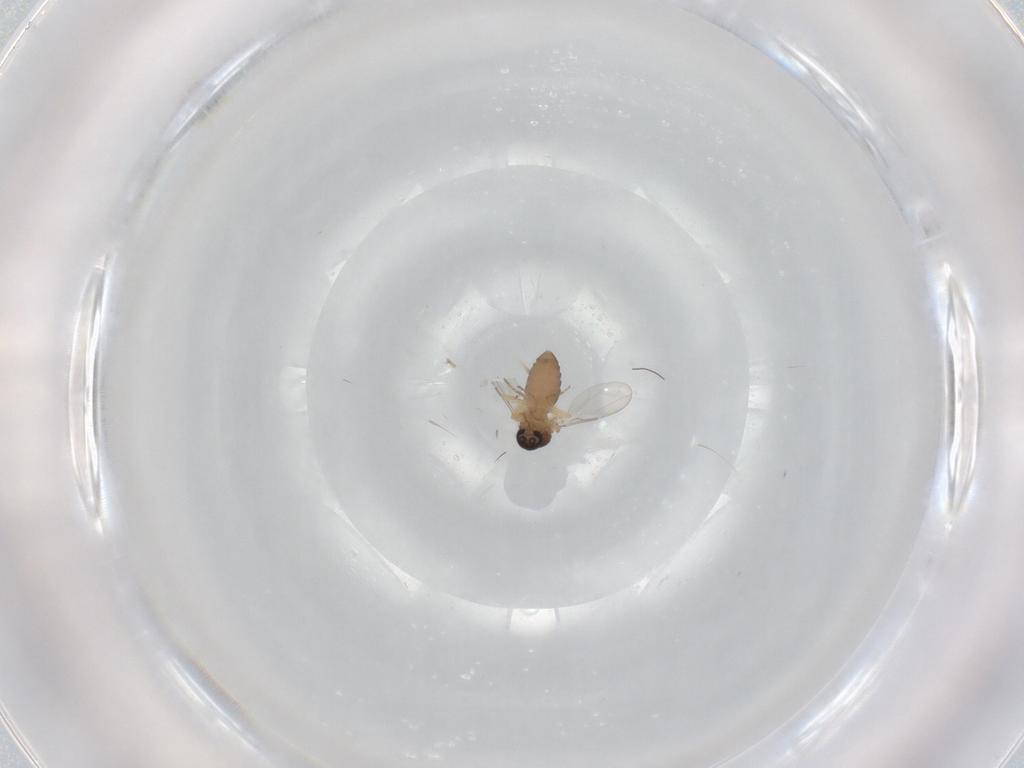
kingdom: Animalia
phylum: Arthropoda
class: Insecta
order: Diptera
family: Ceratopogonidae
